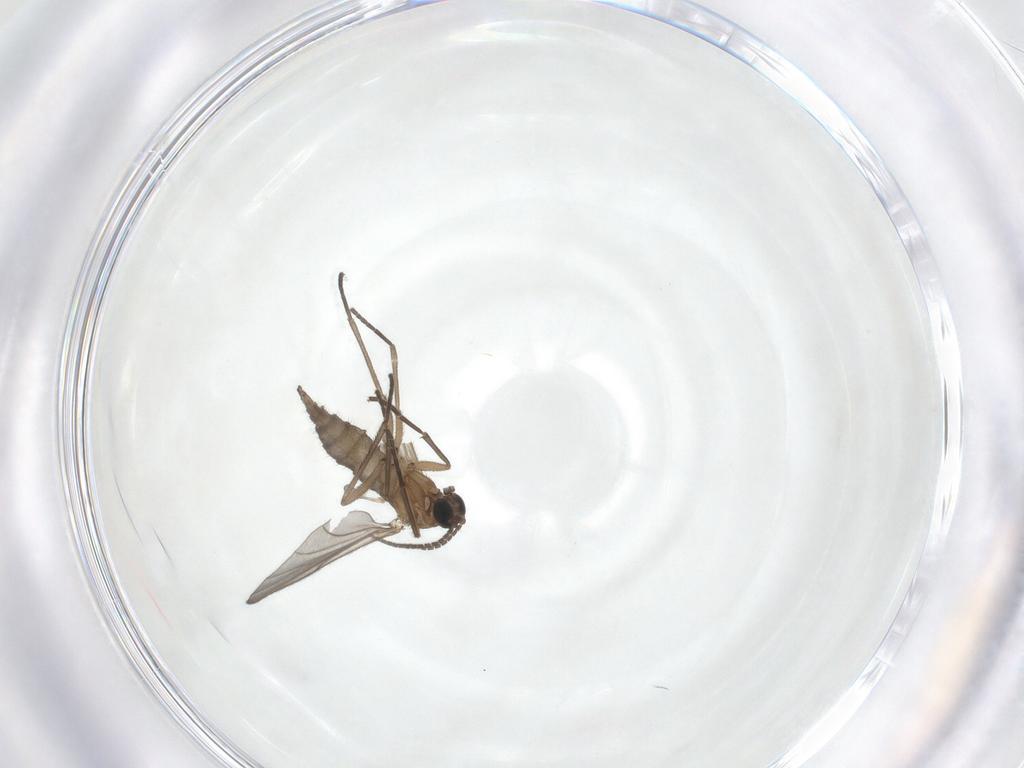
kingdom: Animalia
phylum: Arthropoda
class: Insecta
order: Diptera
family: Sciaridae
